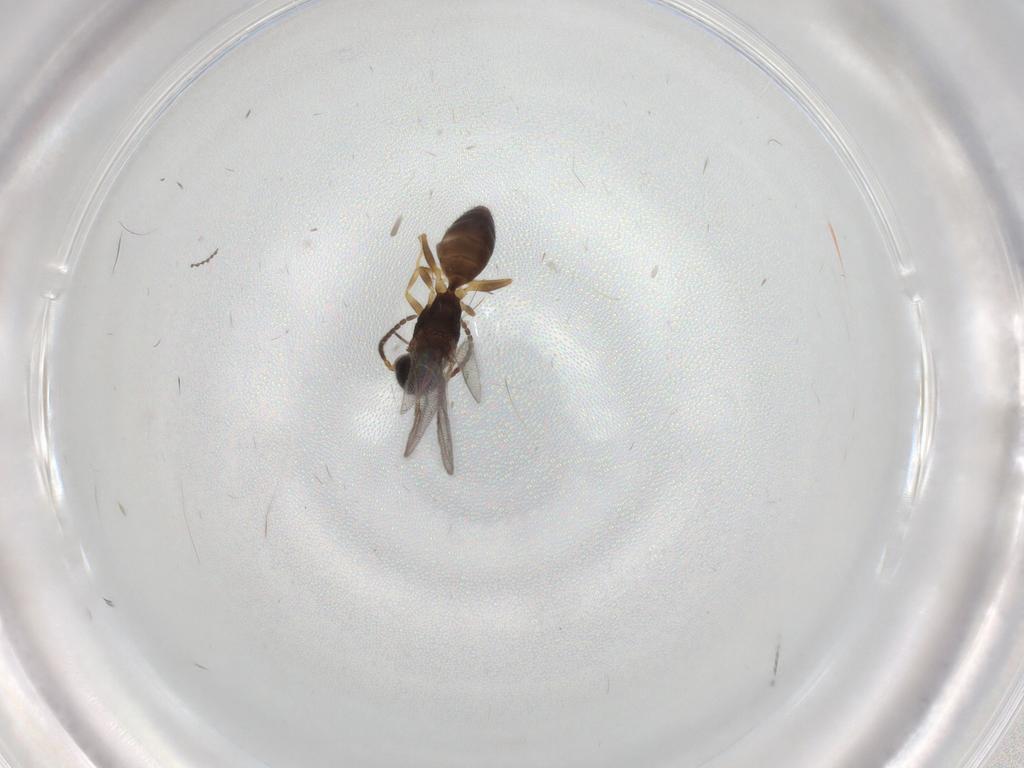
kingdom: Animalia
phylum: Arthropoda
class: Insecta
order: Hymenoptera
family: Bethylidae
